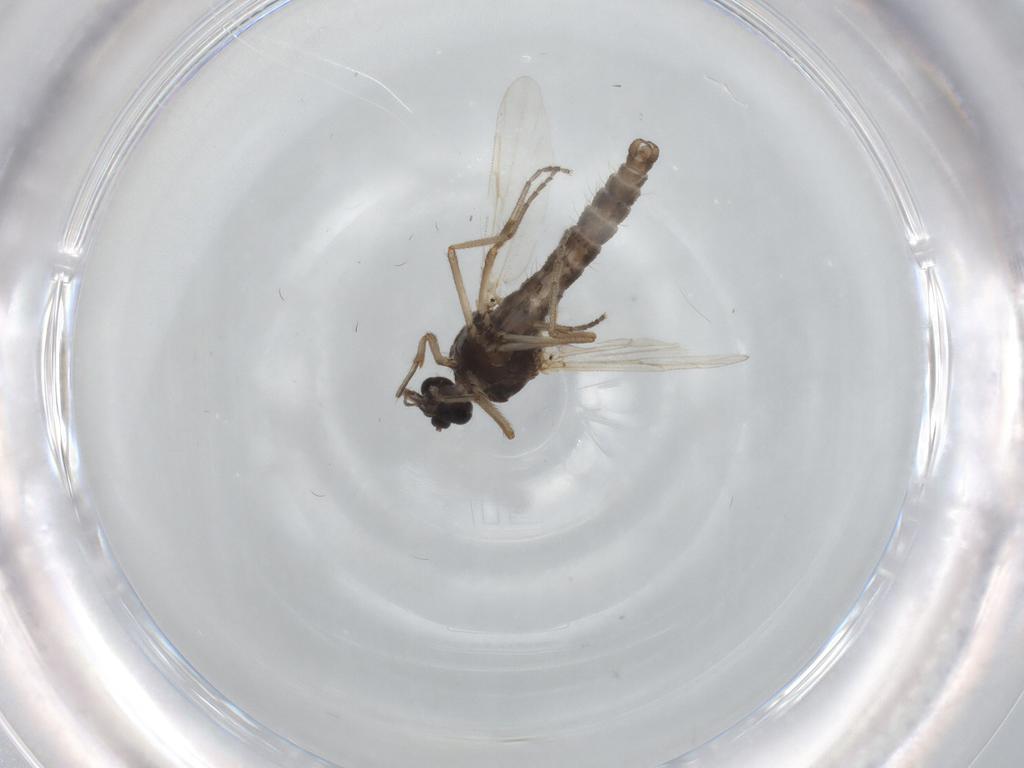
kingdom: Animalia
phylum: Arthropoda
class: Insecta
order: Diptera
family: Ceratopogonidae
